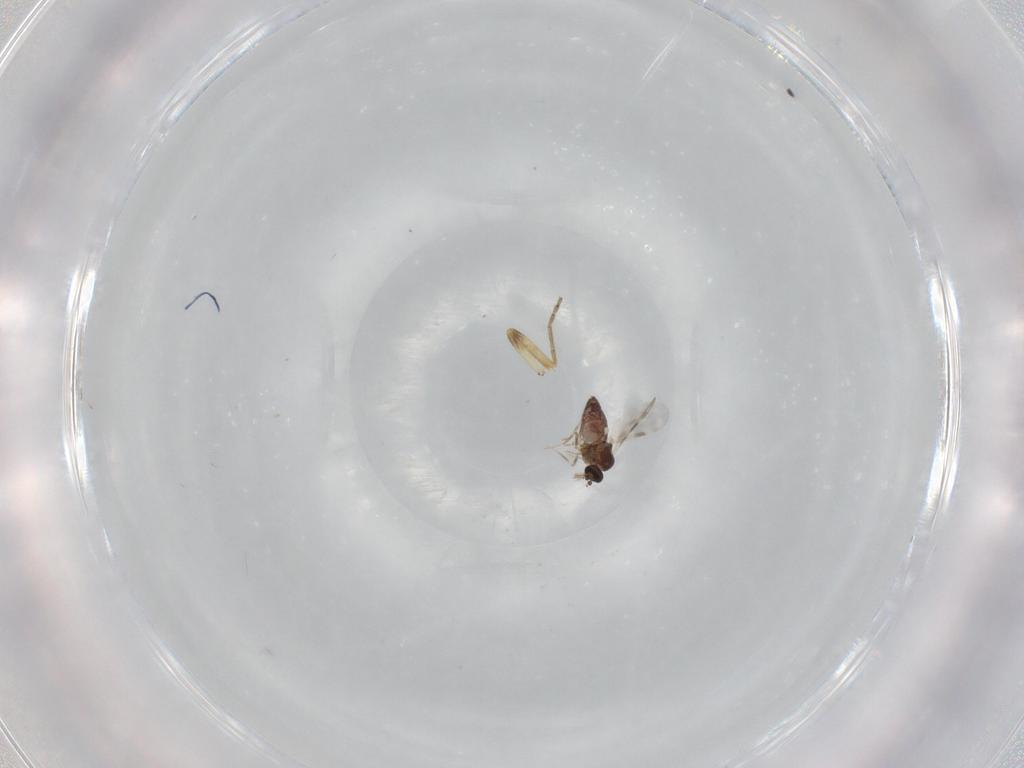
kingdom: Animalia
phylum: Arthropoda
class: Insecta
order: Diptera
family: Ceratopogonidae
